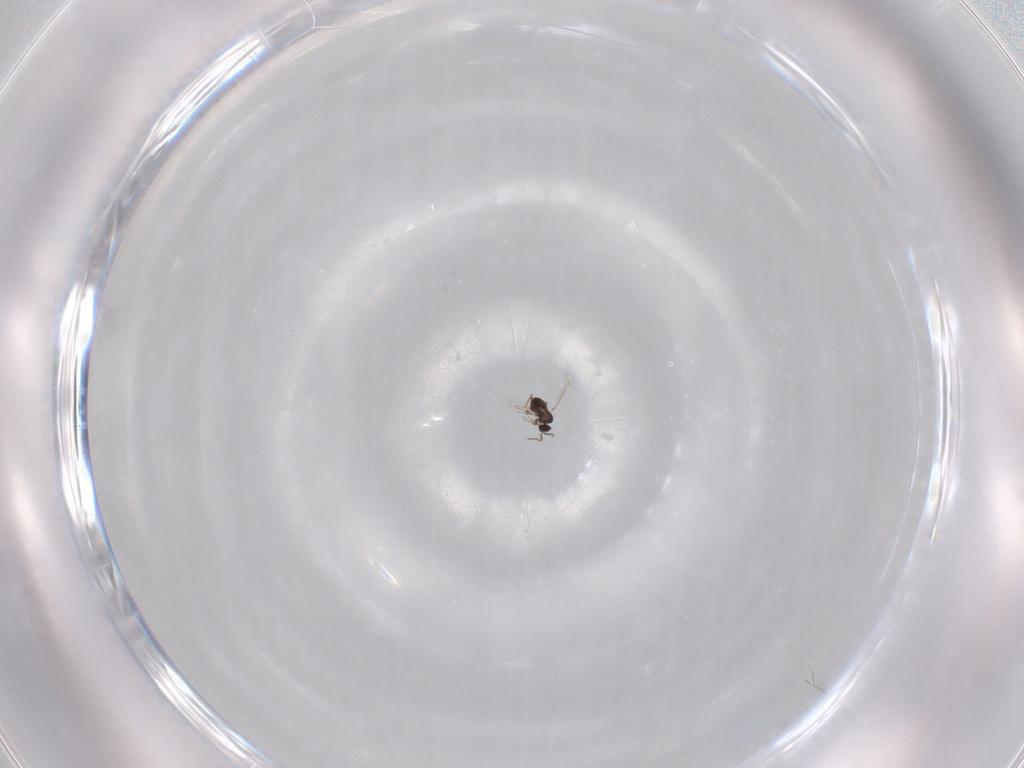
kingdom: Animalia
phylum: Arthropoda
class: Insecta
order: Hymenoptera
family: Mymaridae
